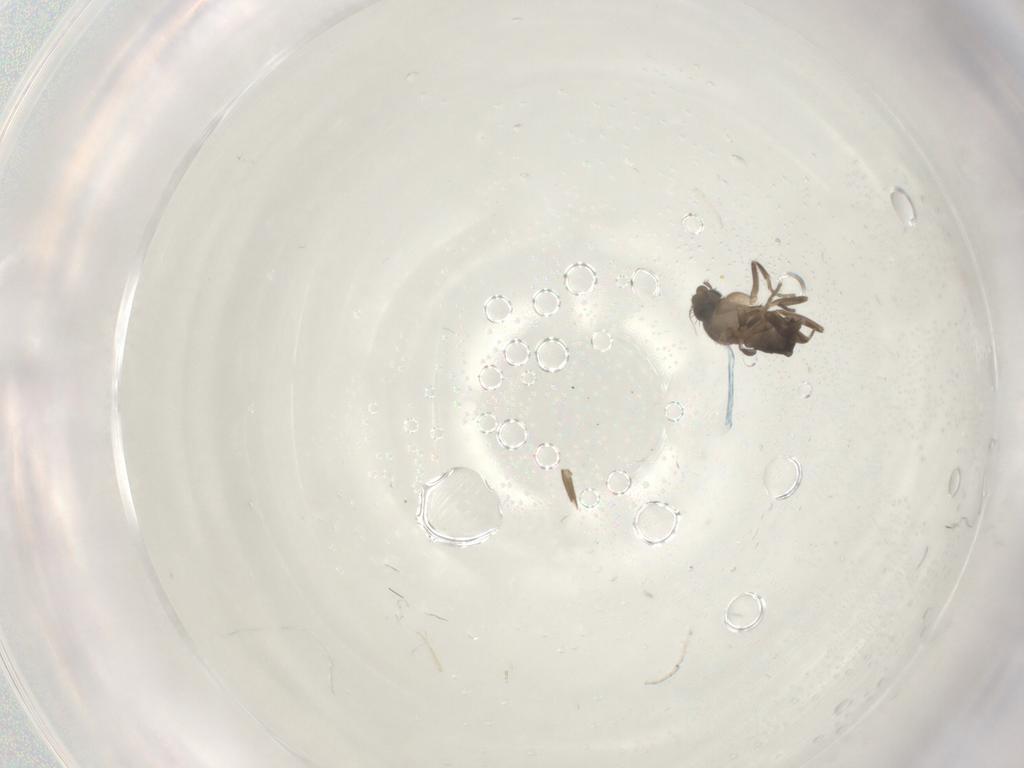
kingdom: Animalia
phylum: Arthropoda
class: Insecta
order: Diptera
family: Phoridae
